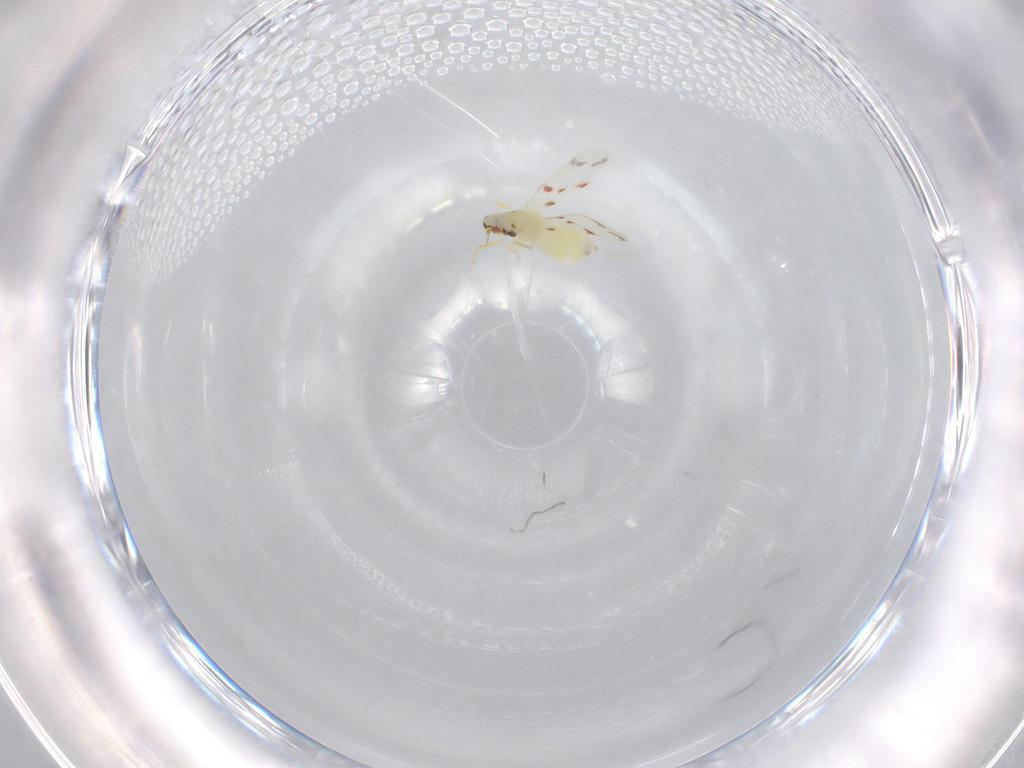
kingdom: Animalia
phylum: Arthropoda
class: Insecta
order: Hemiptera
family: Aleyrodidae
